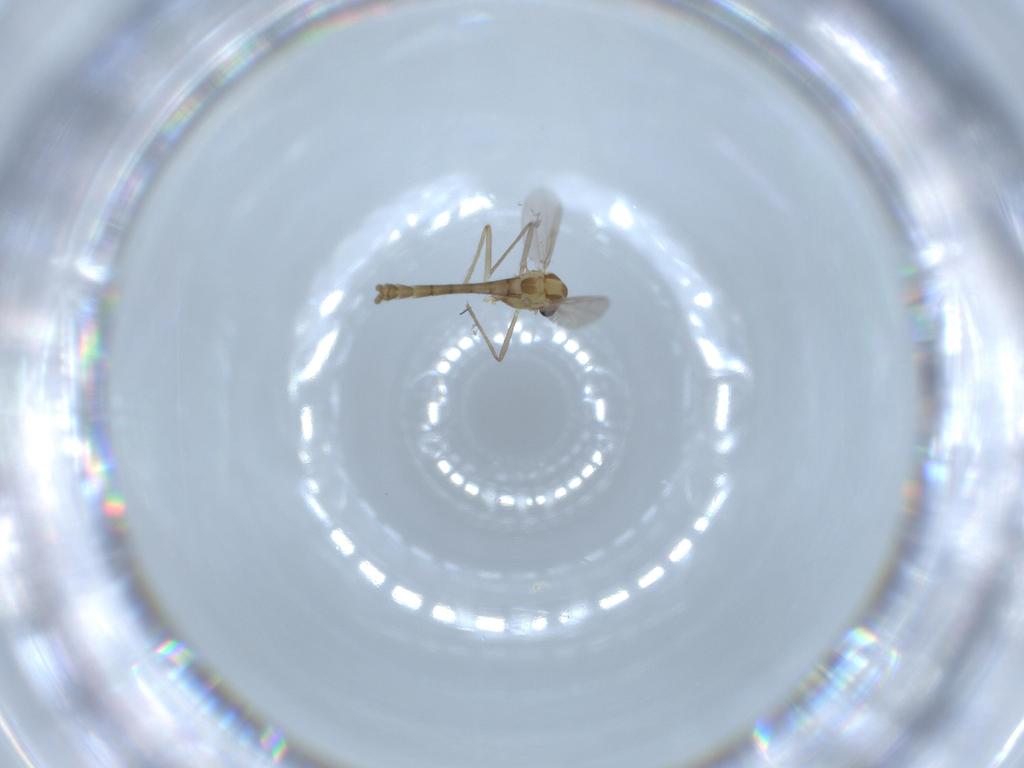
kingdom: Animalia
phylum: Arthropoda
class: Insecta
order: Diptera
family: Chironomidae
